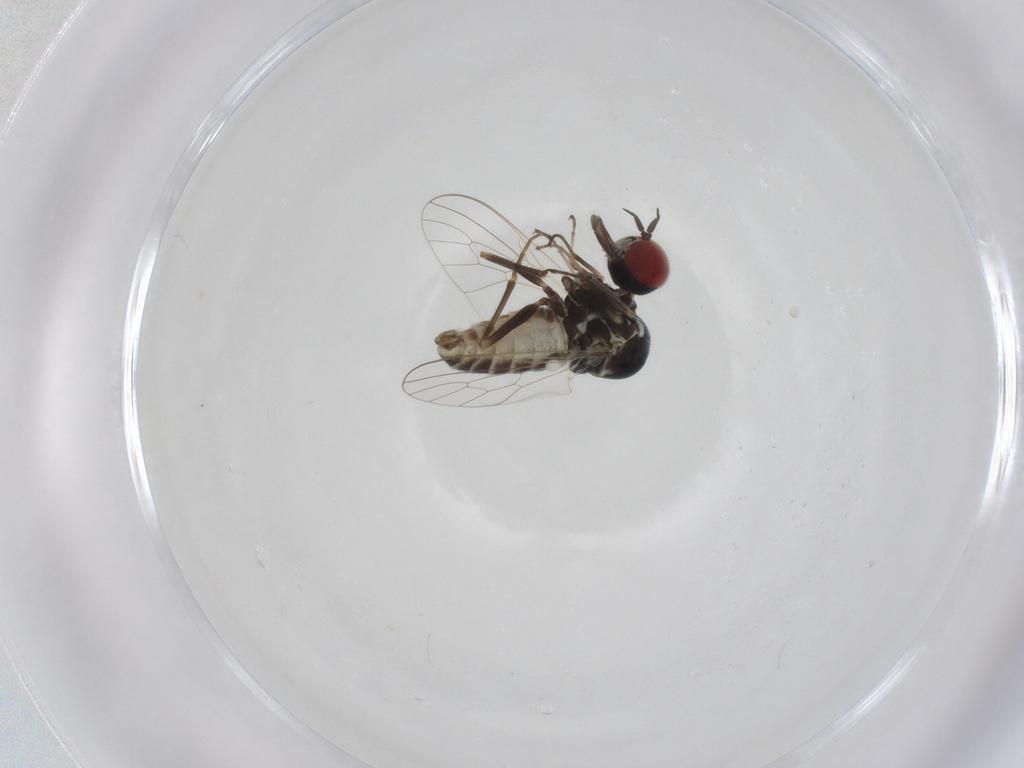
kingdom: Animalia
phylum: Arthropoda
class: Insecta
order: Diptera
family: Bombyliidae
